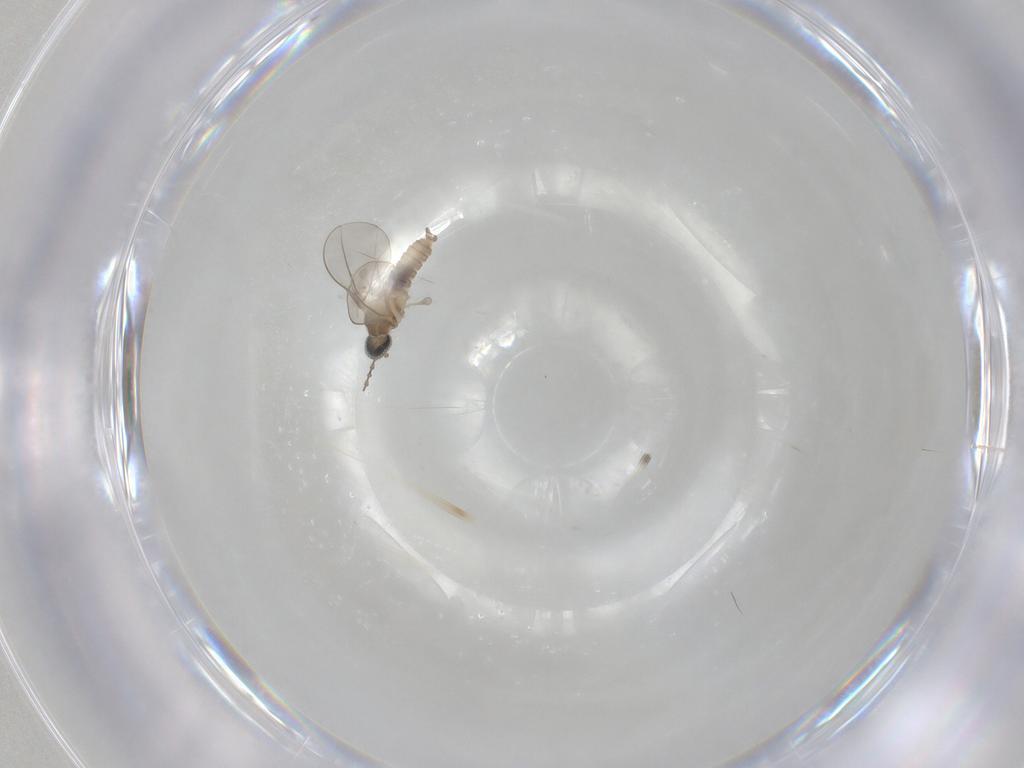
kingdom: Animalia
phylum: Arthropoda
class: Insecta
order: Diptera
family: Cecidomyiidae
